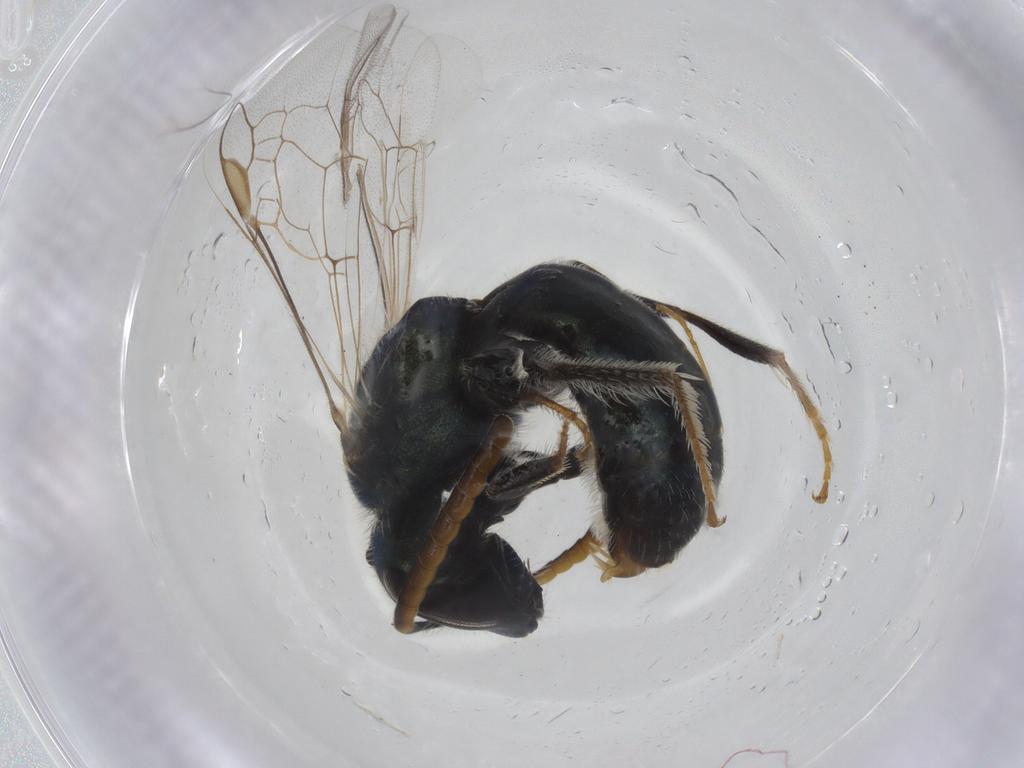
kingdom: Animalia
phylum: Arthropoda
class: Insecta
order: Hymenoptera
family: Halictidae
